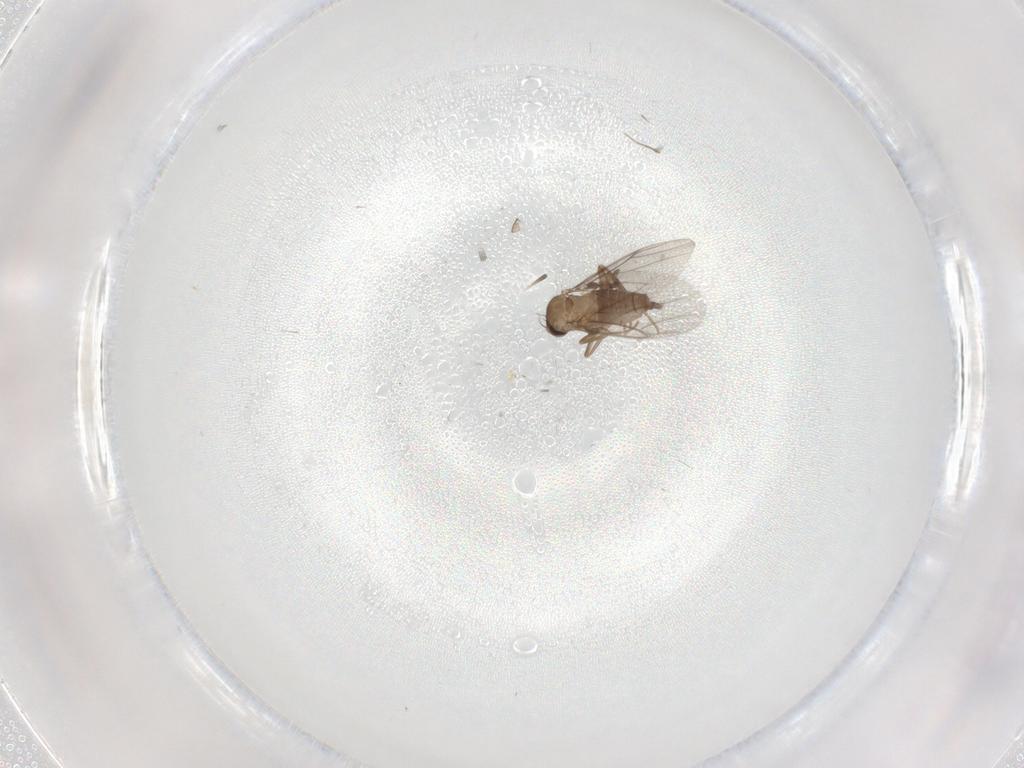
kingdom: Animalia
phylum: Arthropoda
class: Insecta
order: Diptera
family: Psychodidae
